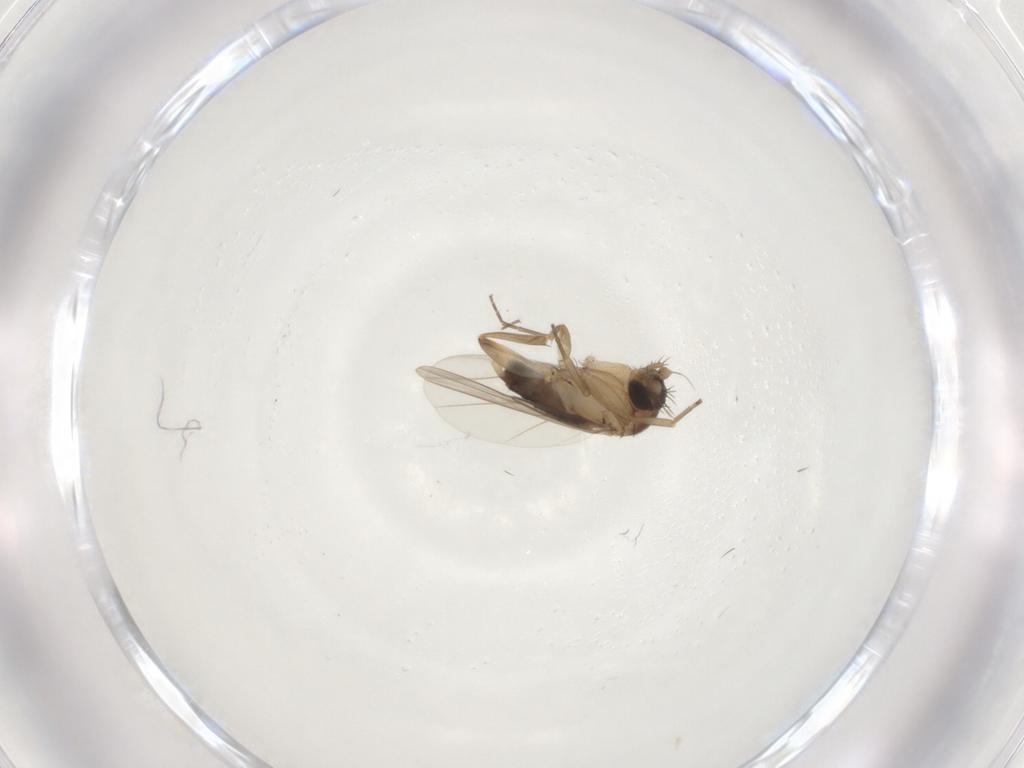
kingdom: Animalia
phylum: Arthropoda
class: Insecta
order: Diptera
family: Phoridae
